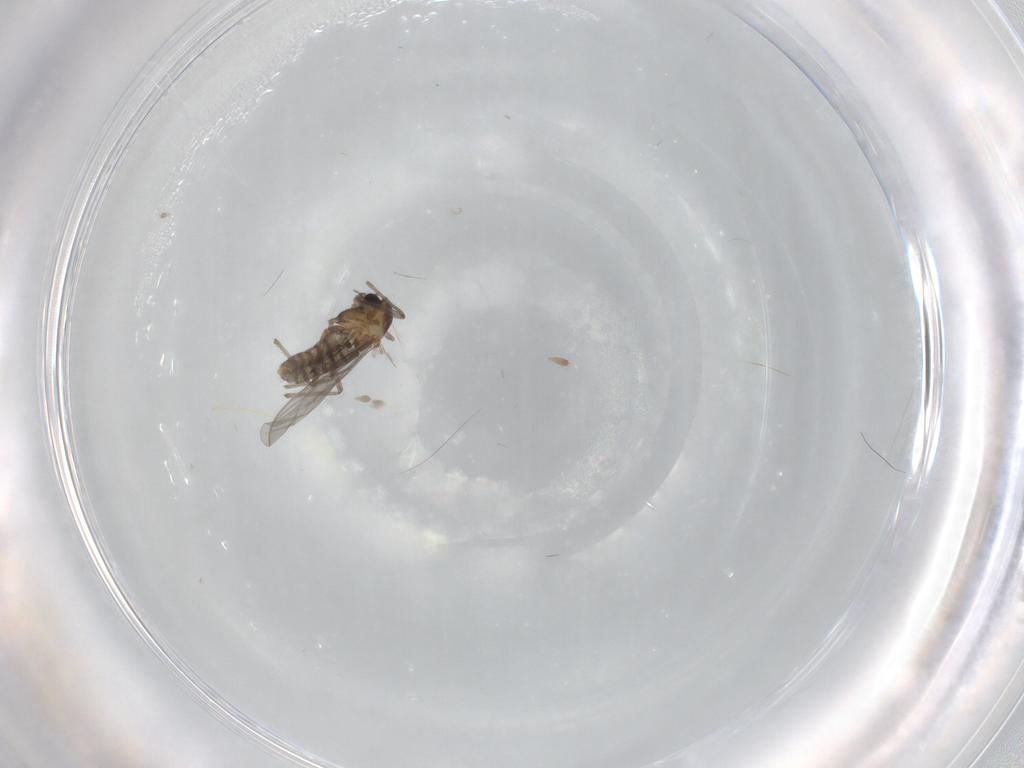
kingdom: Animalia
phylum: Arthropoda
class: Insecta
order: Diptera
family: Chironomidae
